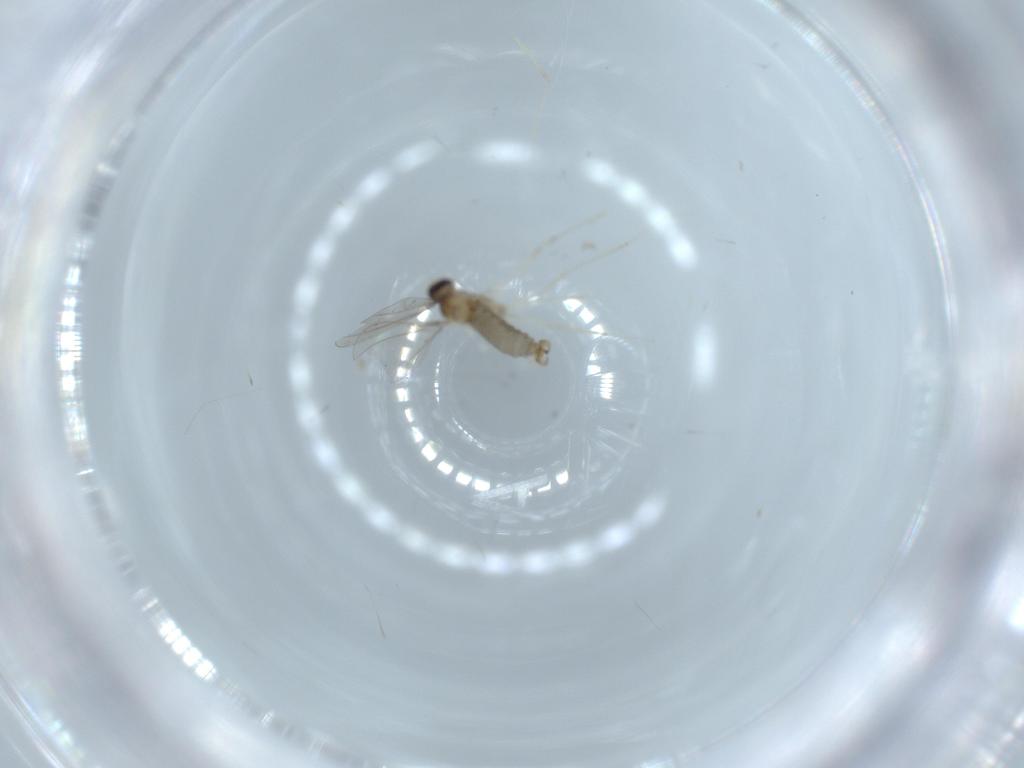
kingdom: Animalia
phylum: Arthropoda
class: Insecta
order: Diptera
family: Cecidomyiidae
